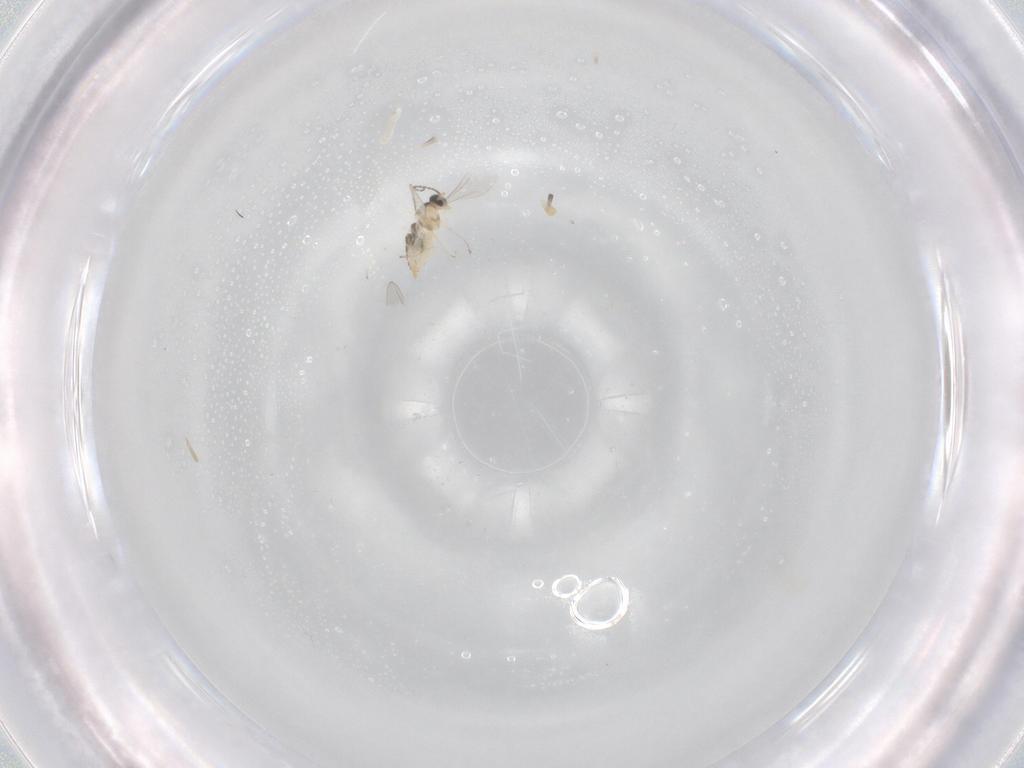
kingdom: Animalia
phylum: Arthropoda
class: Insecta
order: Diptera
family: Cecidomyiidae
